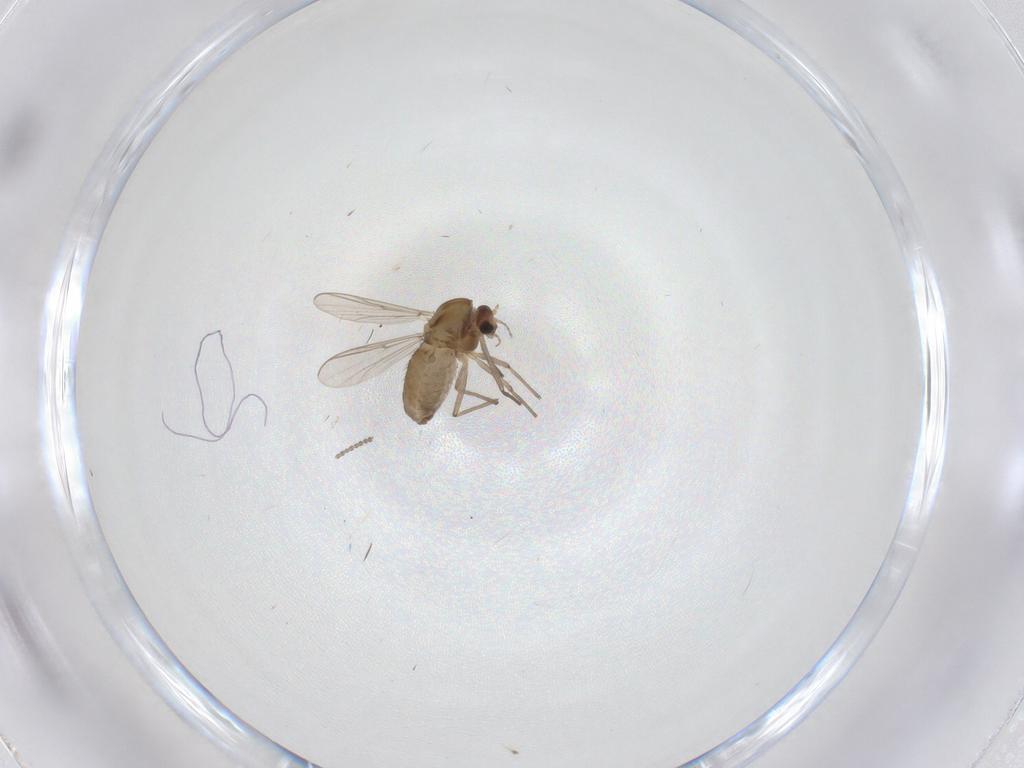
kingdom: Animalia
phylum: Arthropoda
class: Insecta
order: Diptera
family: Chironomidae
